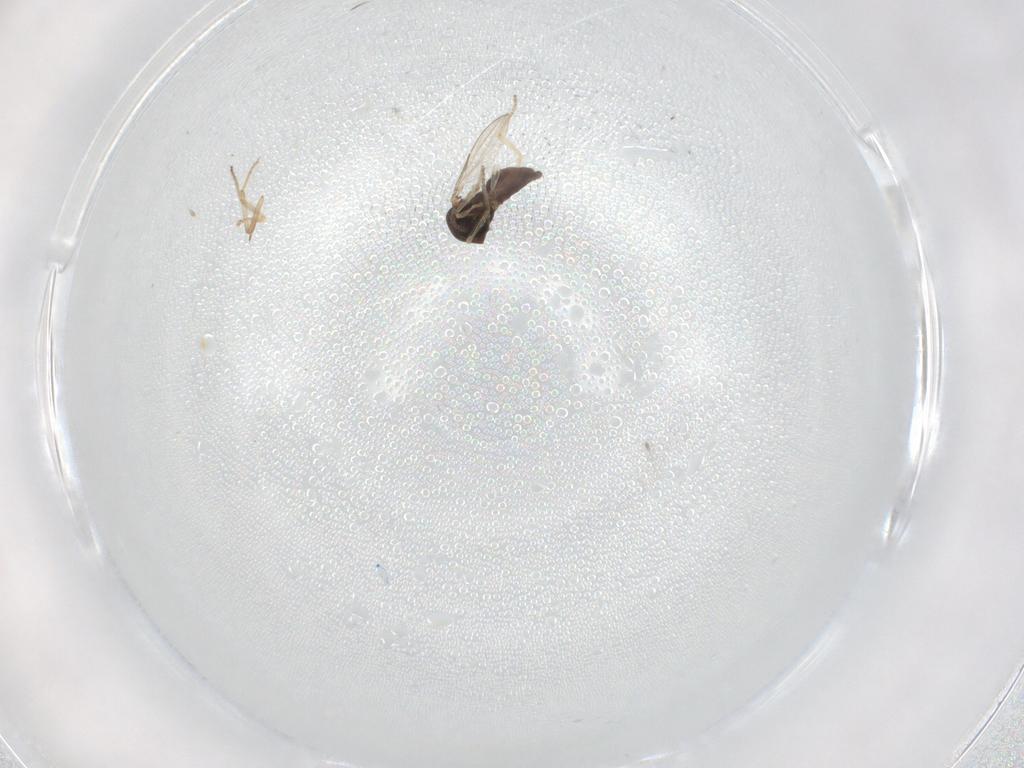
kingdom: Animalia
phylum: Arthropoda
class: Insecta
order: Diptera
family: Ceratopogonidae
